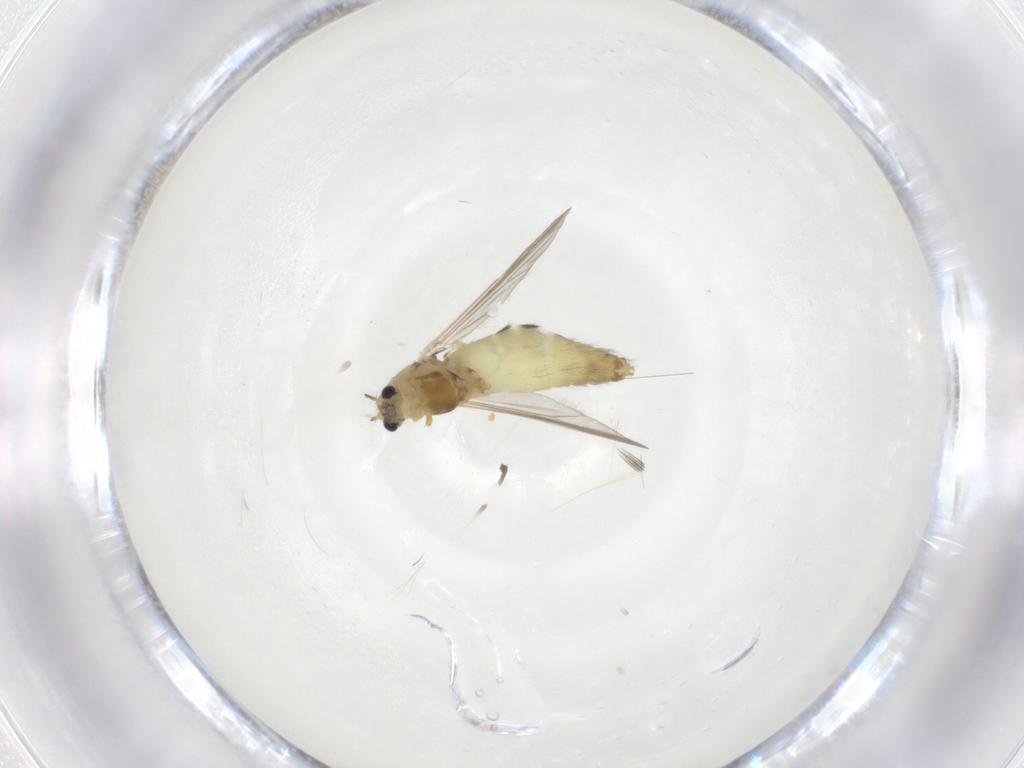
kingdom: Animalia
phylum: Arthropoda
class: Insecta
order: Diptera
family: Chironomidae
